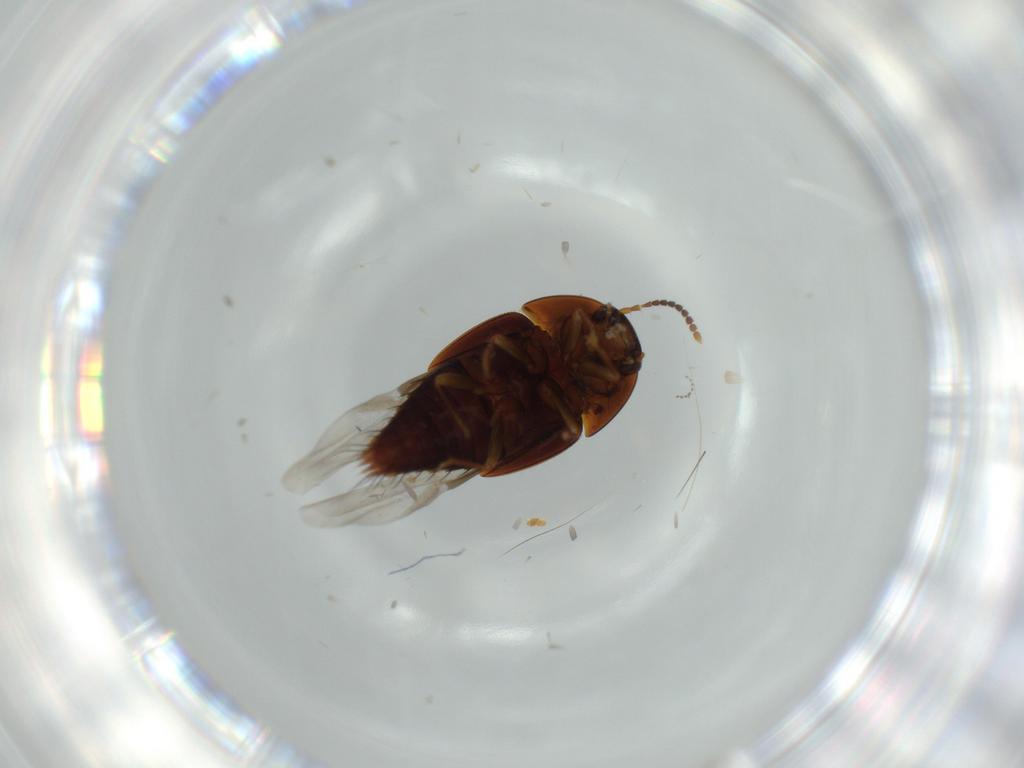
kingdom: Animalia
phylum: Arthropoda
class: Insecta
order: Coleoptera
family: Staphylinidae
